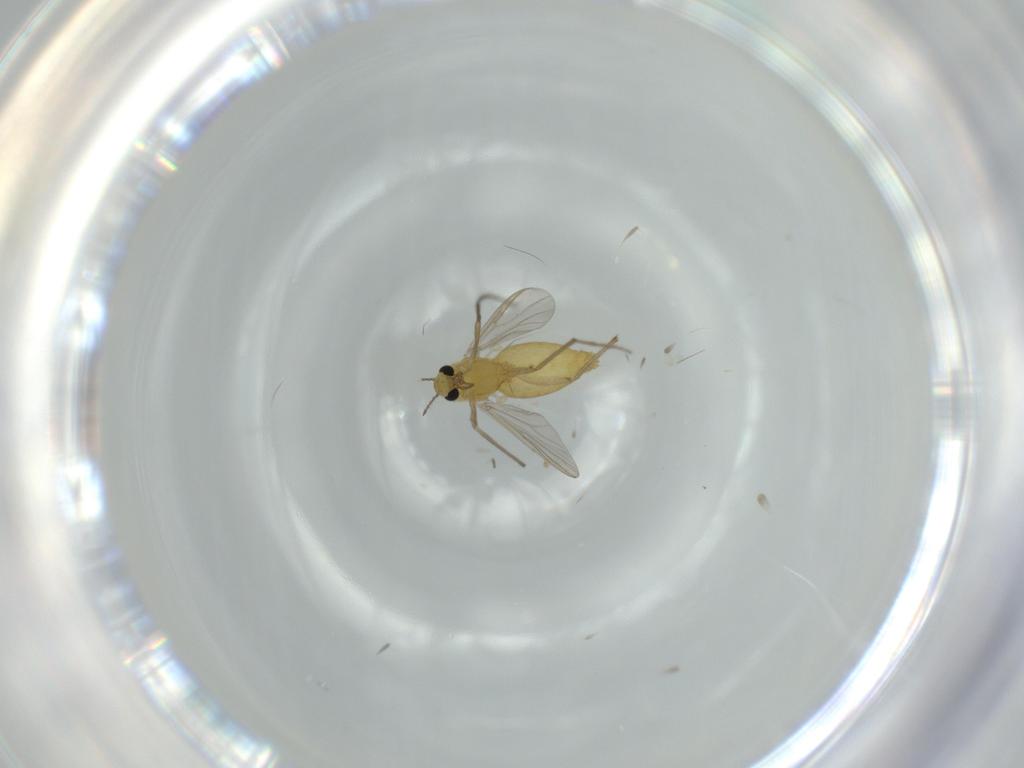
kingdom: Animalia
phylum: Arthropoda
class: Insecta
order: Diptera
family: Chironomidae
